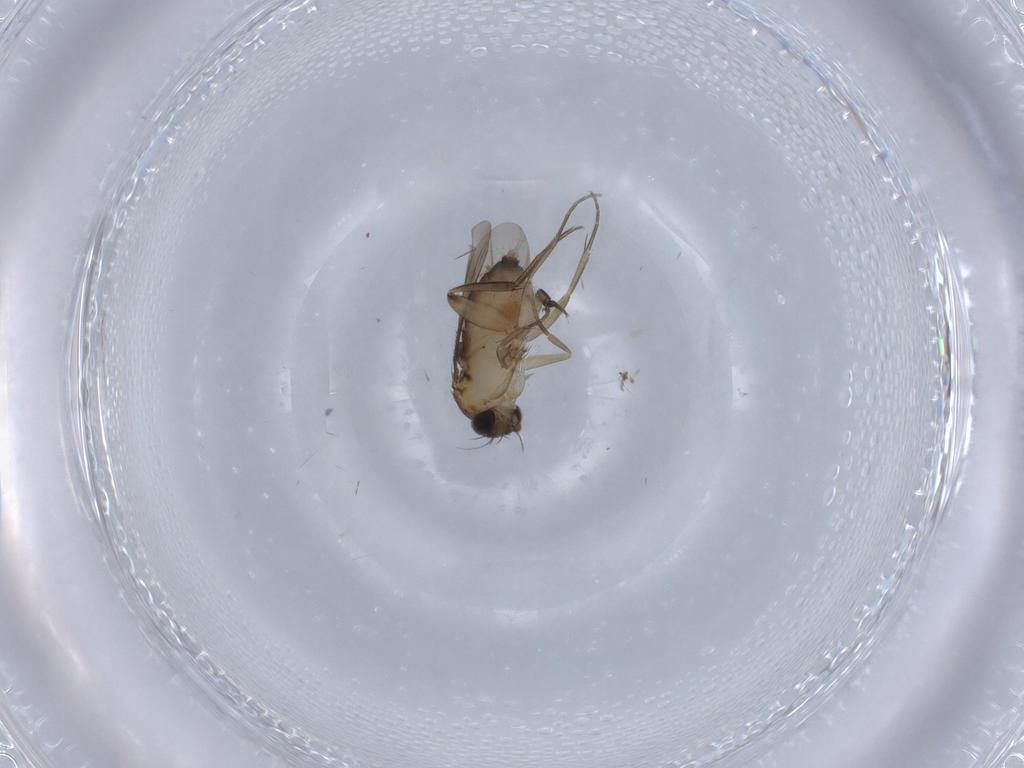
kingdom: Animalia
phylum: Arthropoda
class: Insecta
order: Diptera
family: Phoridae
